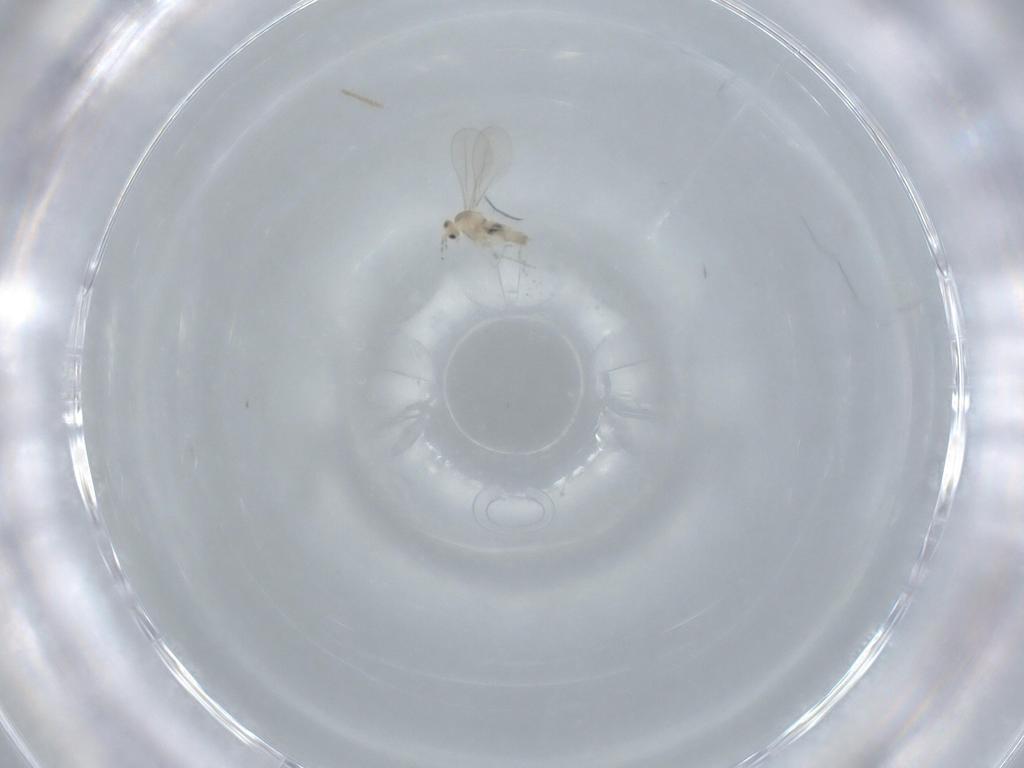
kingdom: Animalia
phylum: Arthropoda
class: Insecta
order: Diptera
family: Cecidomyiidae
